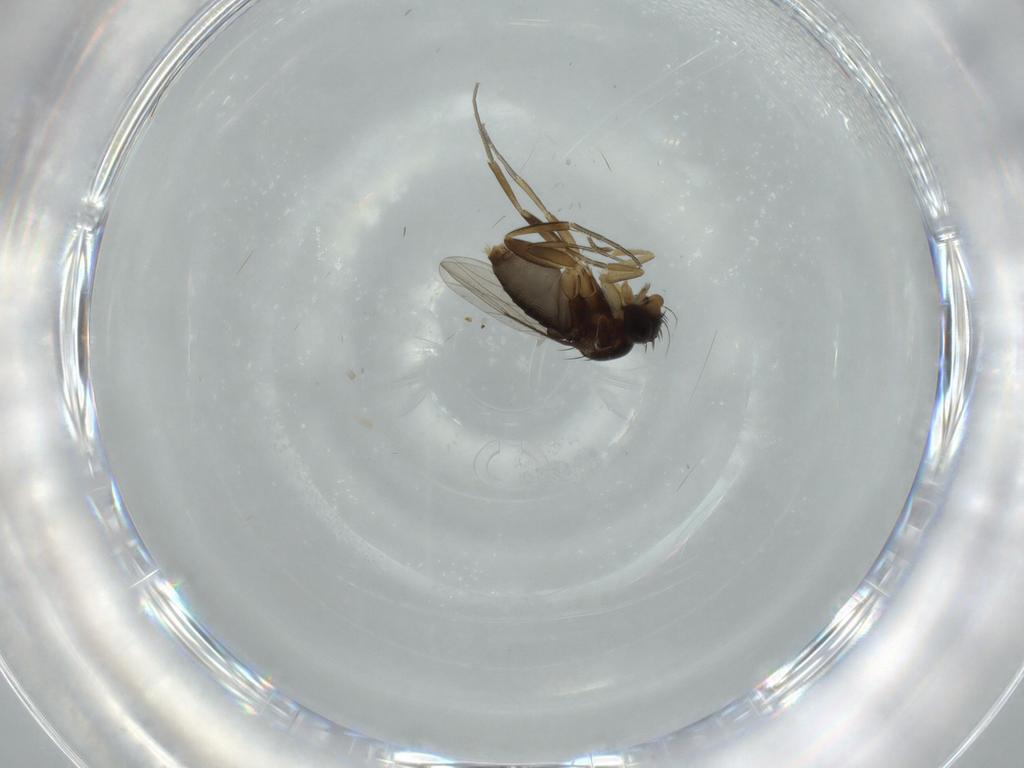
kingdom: Animalia
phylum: Arthropoda
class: Insecta
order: Diptera
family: Phoridae
